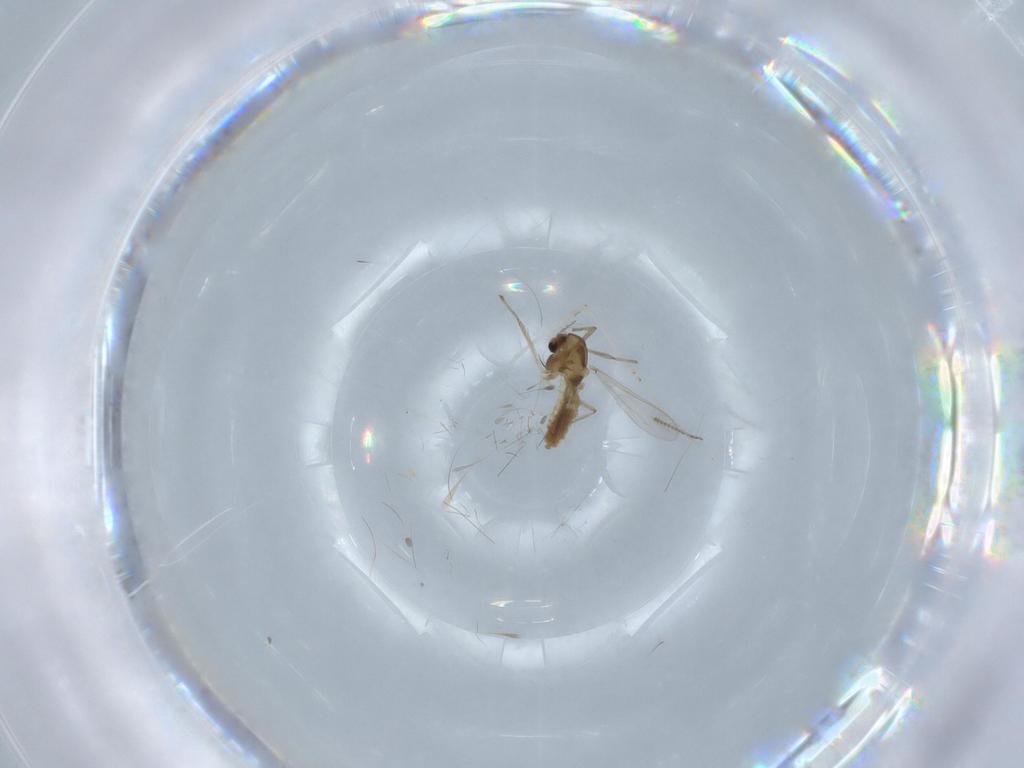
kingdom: Animalia
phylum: Arthropoda
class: Insecta
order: Diptera
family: Chironomidae
